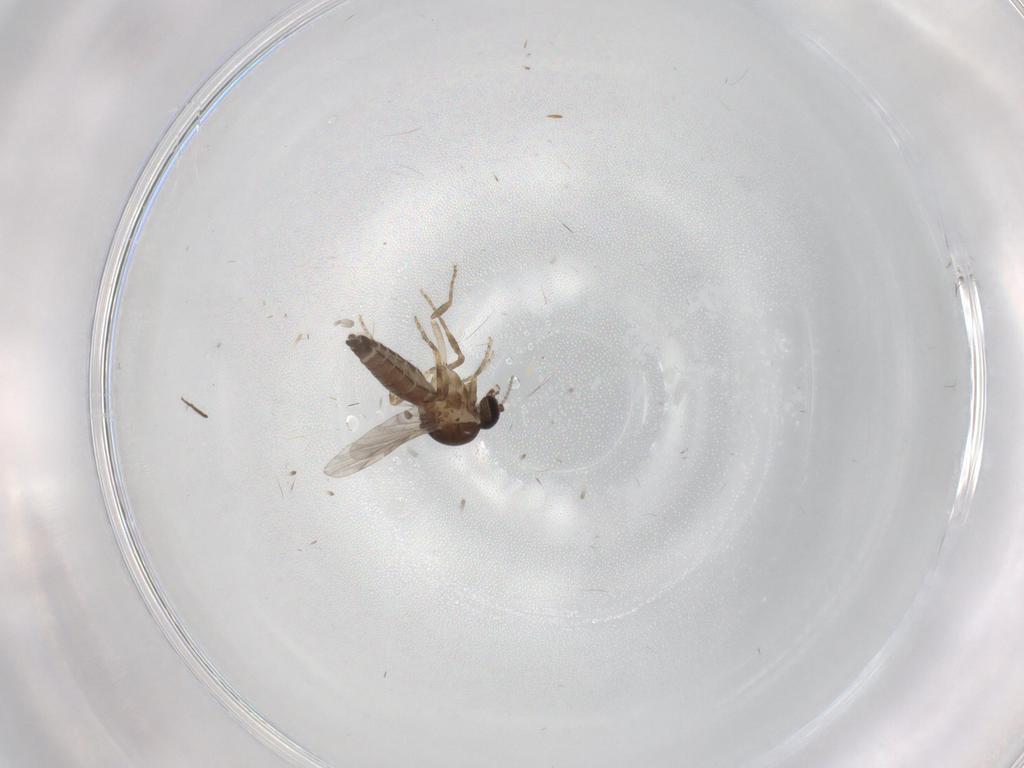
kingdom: Animalia
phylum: Arthropoda
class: Insecta
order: Diptera
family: Ceratopogonidae
